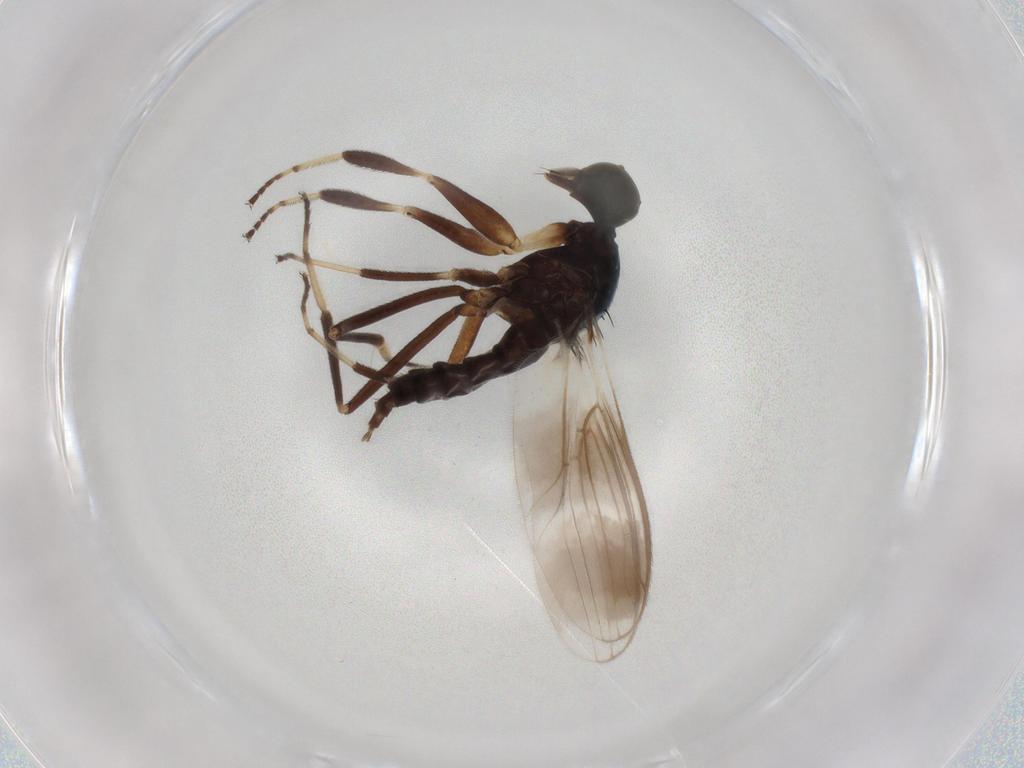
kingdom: Animalia
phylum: Arthropoda
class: Insecta
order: Diptera
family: Hybotidae
